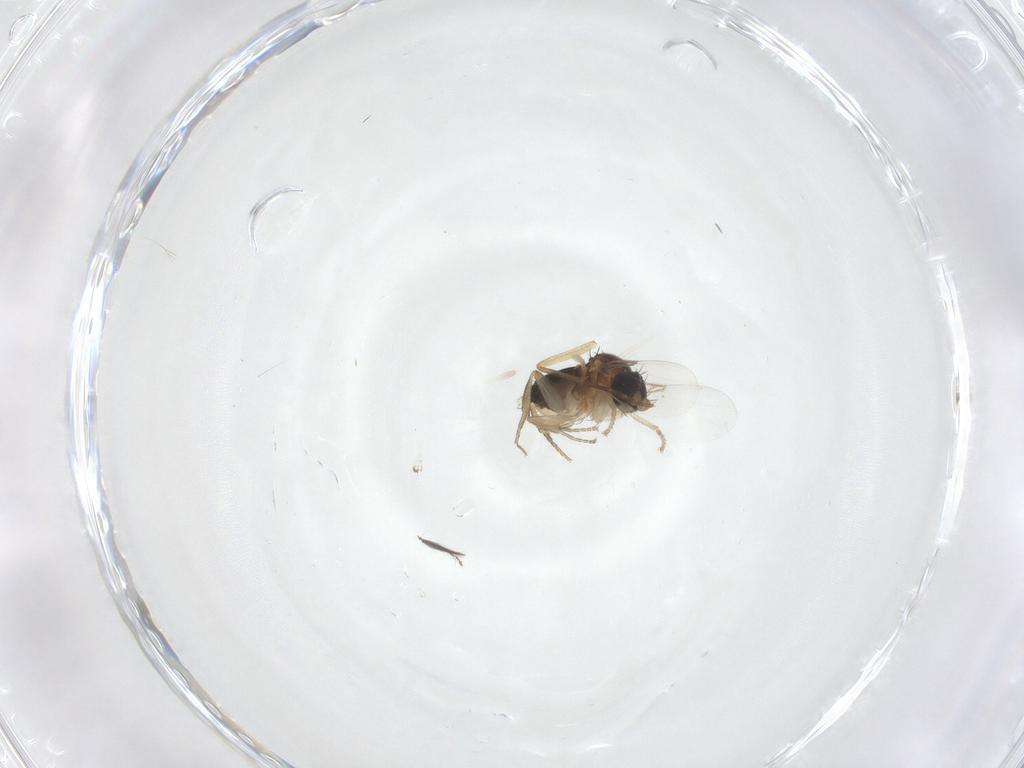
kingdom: Animalia
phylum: Arthropoda
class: Insecta
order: Diptera
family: Ceratopogonidae
